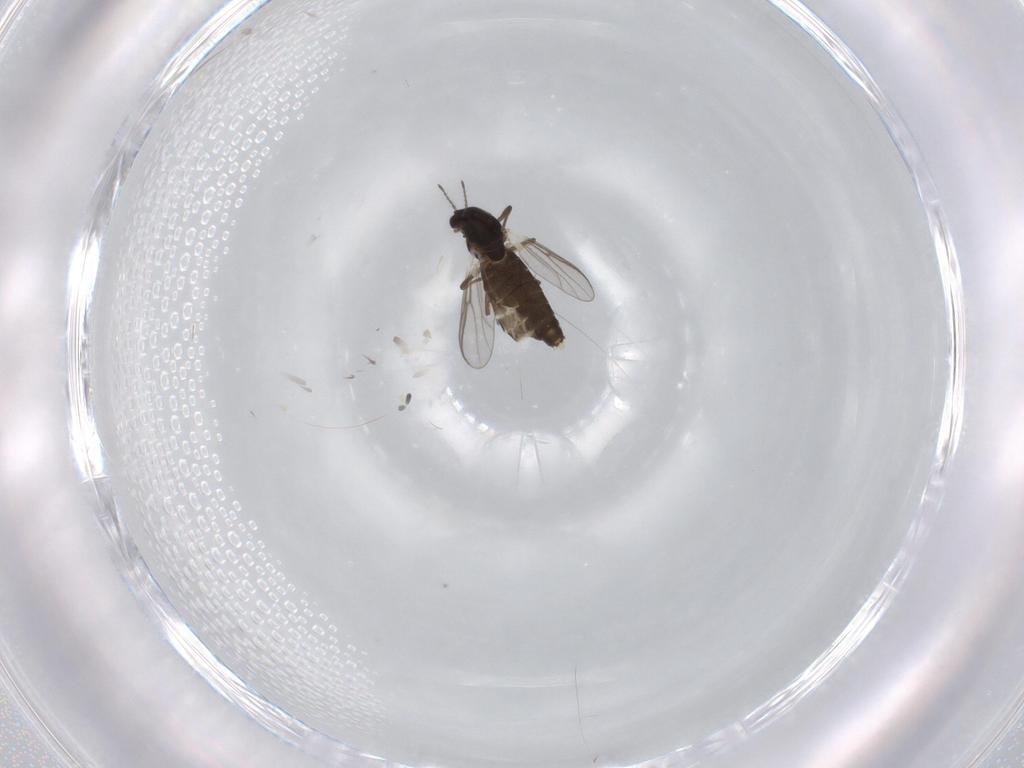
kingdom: Animalia
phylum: Arthropoda
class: Insecta
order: Diptera
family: Chironomidae
